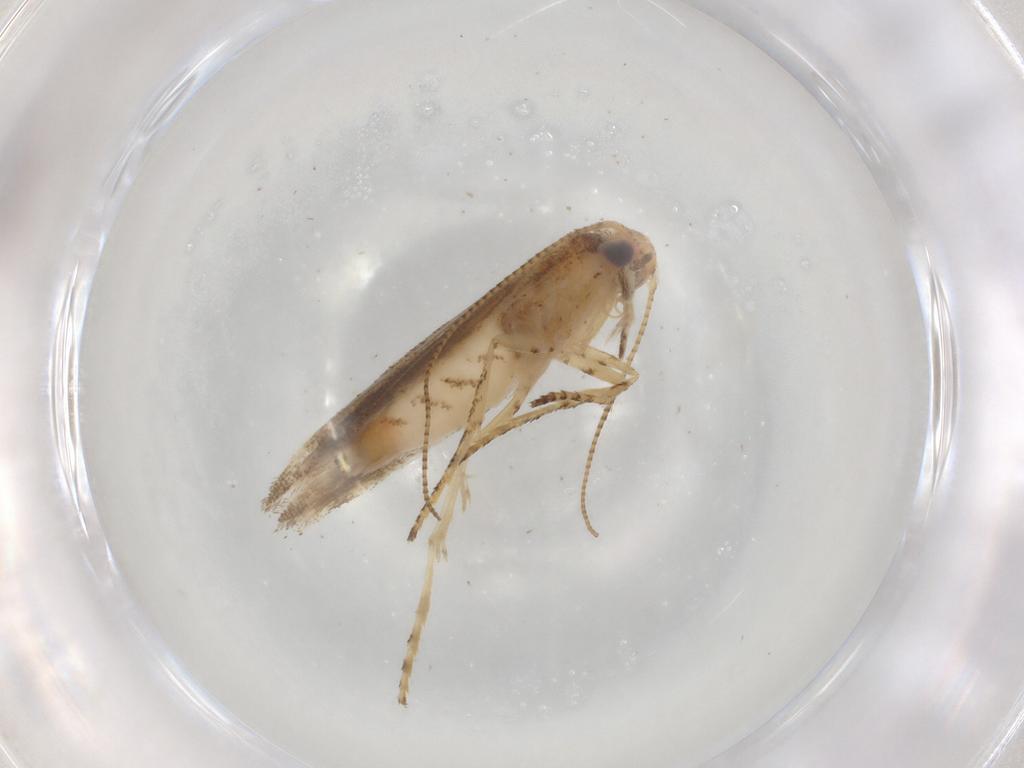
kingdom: Animalia
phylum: Arthropoda
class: Insecta
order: Lepidoptera
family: Gracillariidae
